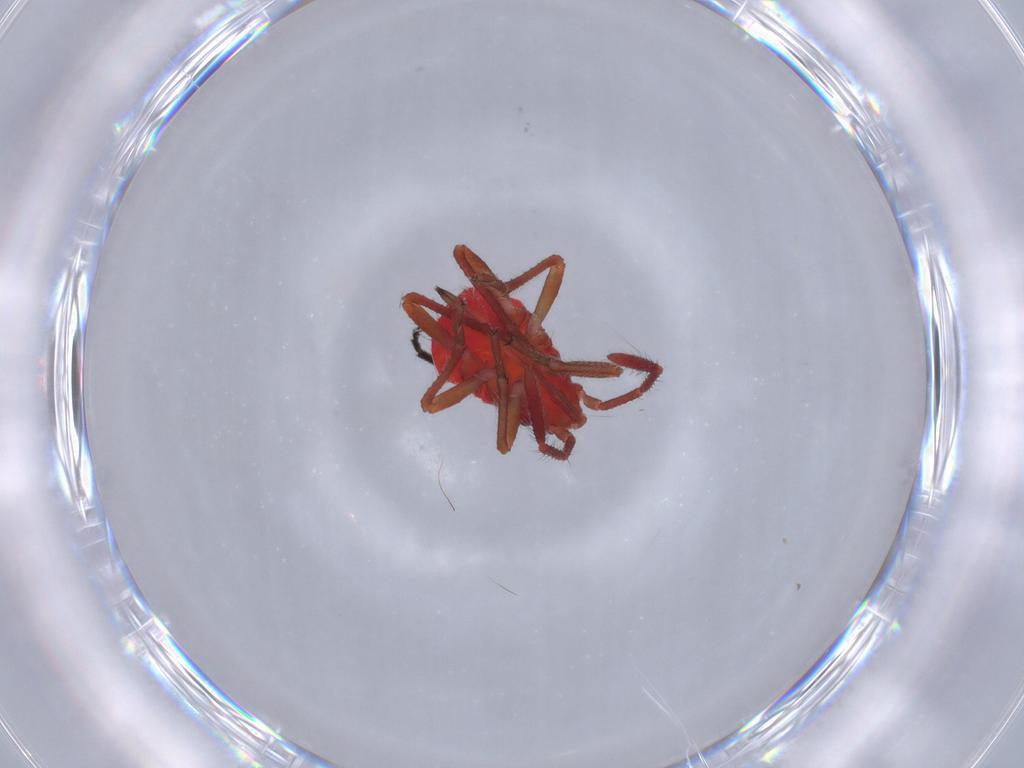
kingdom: Animalia
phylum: Arthropoda
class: Insecta
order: Hemiptera
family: Rhopalidae
